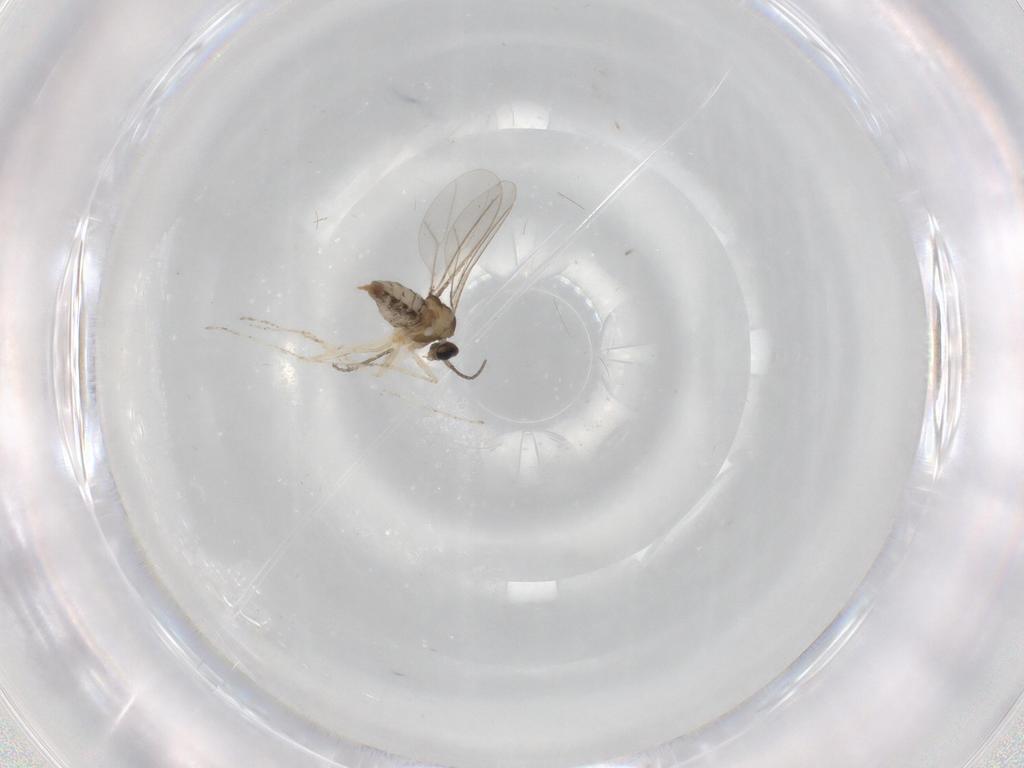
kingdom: Animalia
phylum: Arthropoda
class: Insecta
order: Diptera
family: Cecidomyiidae
